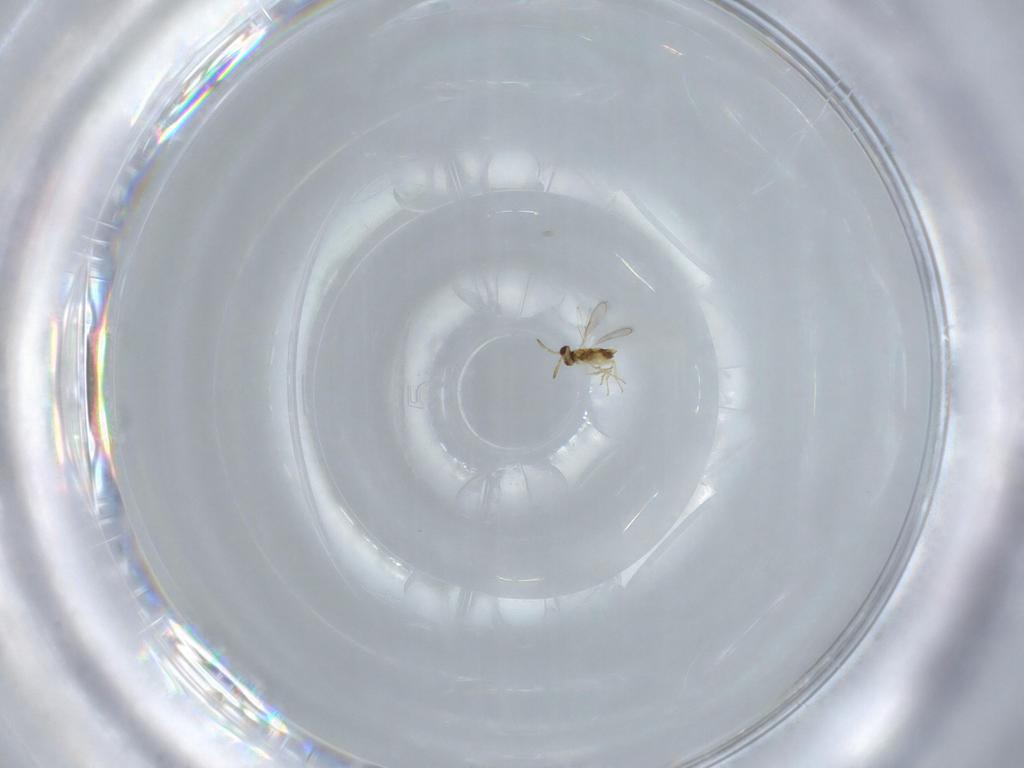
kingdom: Animalia
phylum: Arthropoda
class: Insecta
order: Hymenoptera
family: Aphelinidae
